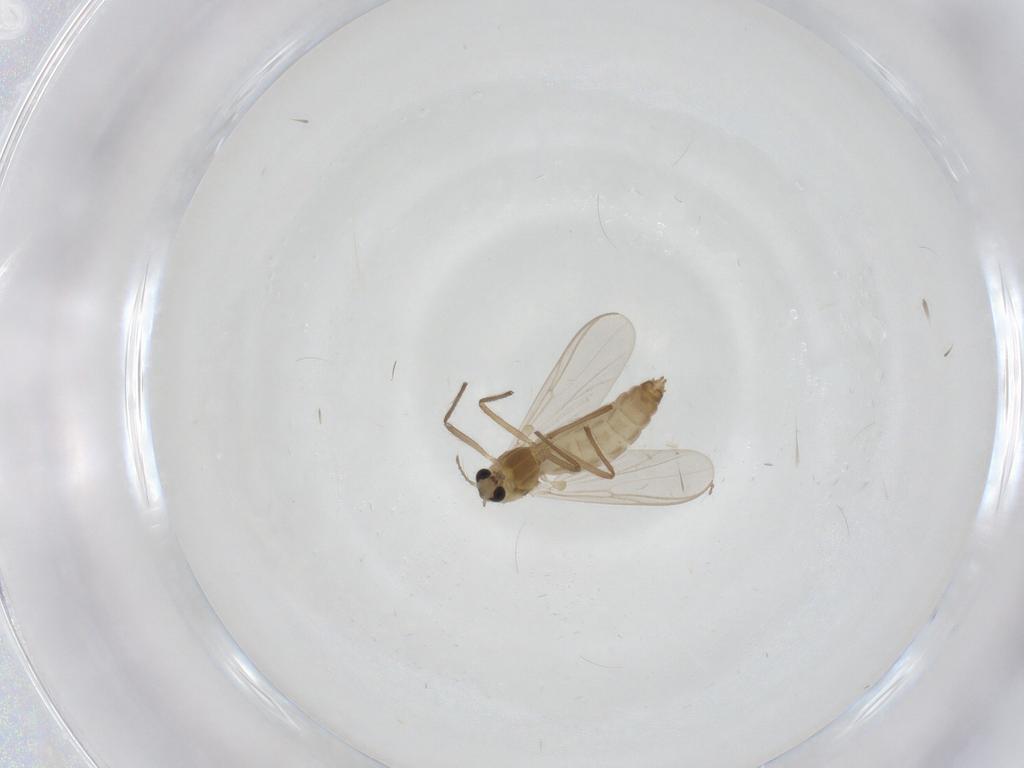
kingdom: Animalia
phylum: Arthropoda
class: Insecta
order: Diptera
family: Chironomidae
